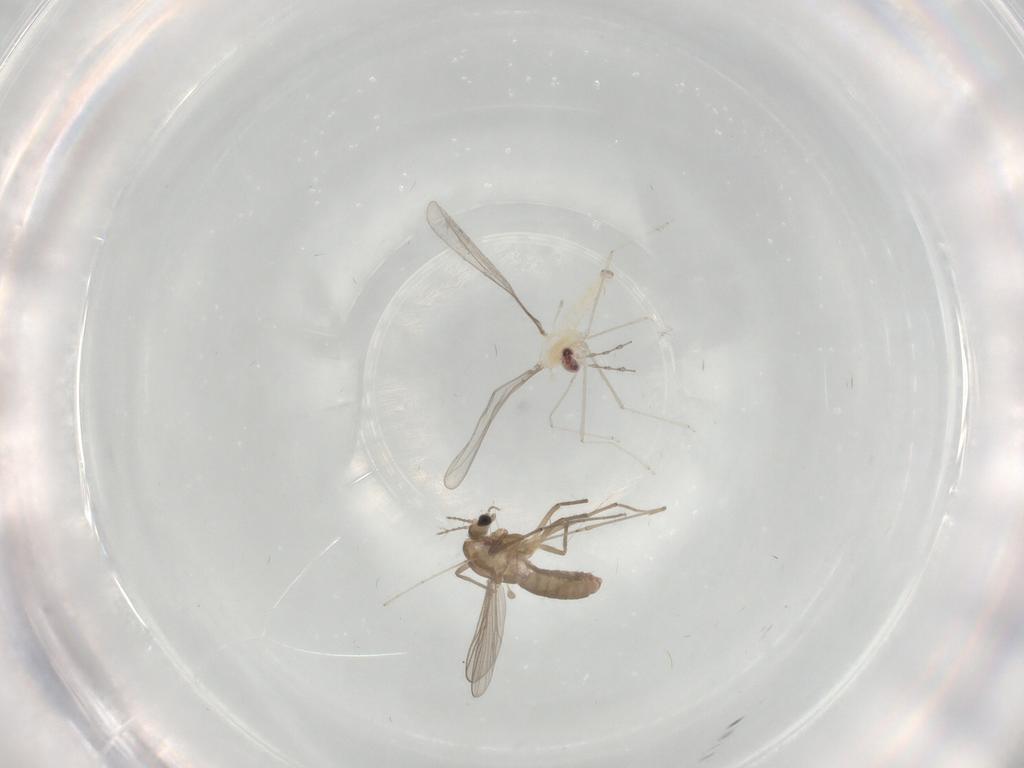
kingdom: Animalia
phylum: Arthropoda
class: Insecta
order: Diptera
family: Cecidomyiidae
